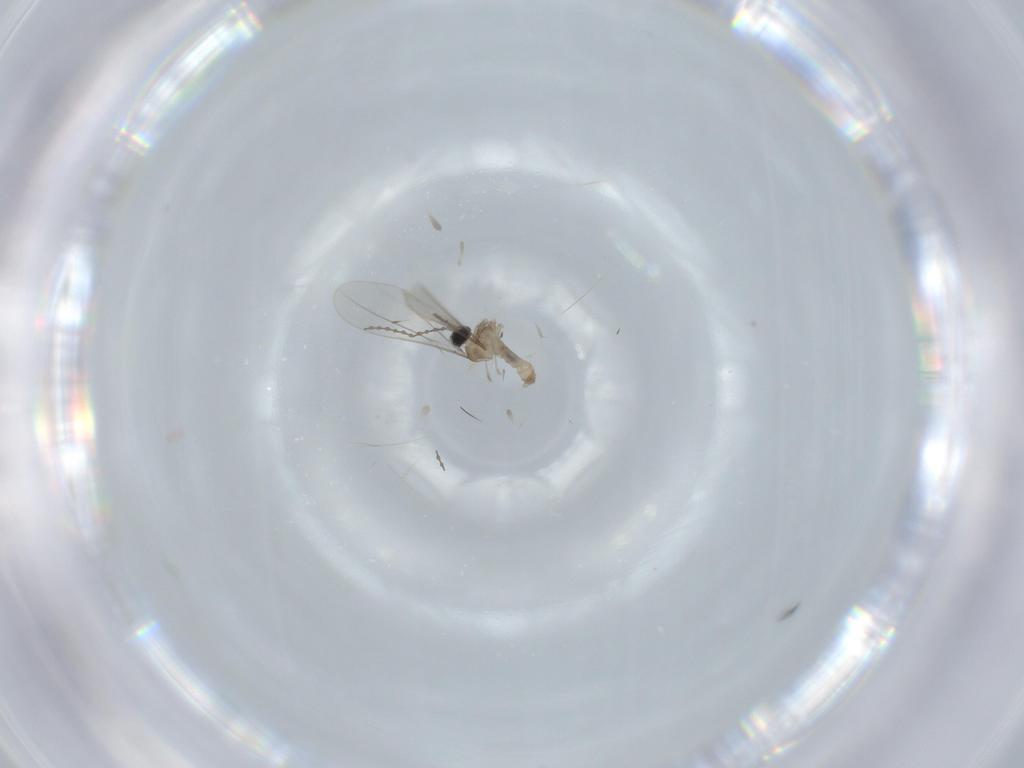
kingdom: Animalia
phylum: Arthropoda
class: Insecta
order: Diptera
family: Cecidomyiidae
